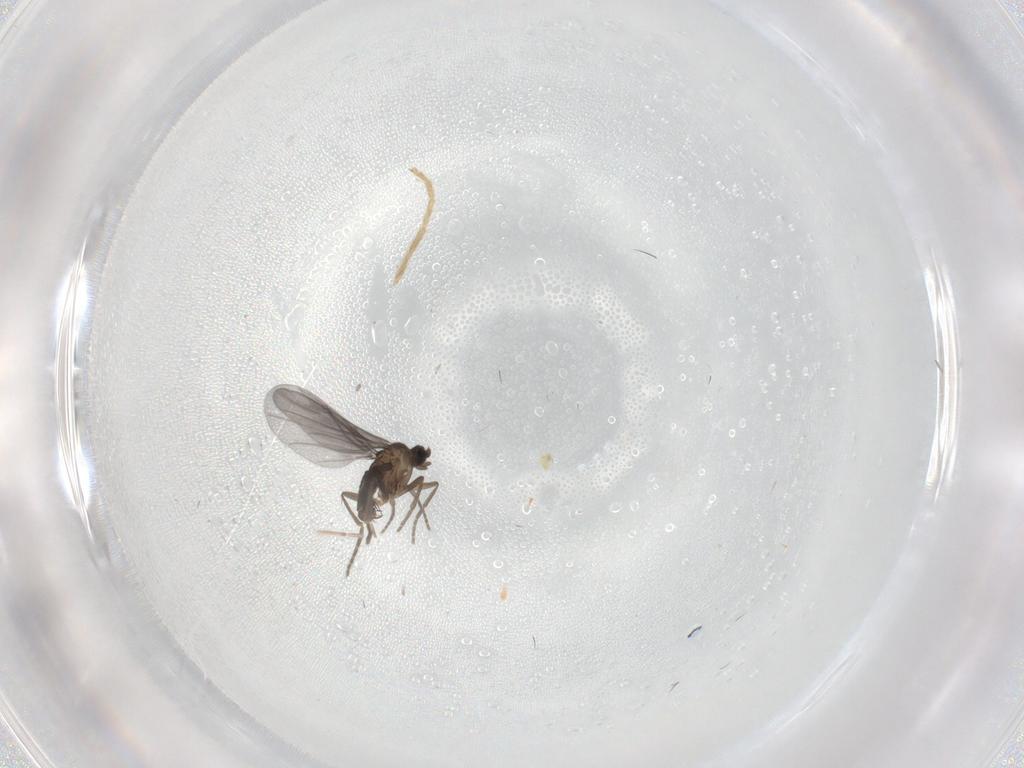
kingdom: Animalia
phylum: Arthropoda
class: Insecta
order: Diptera
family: Phoridae
